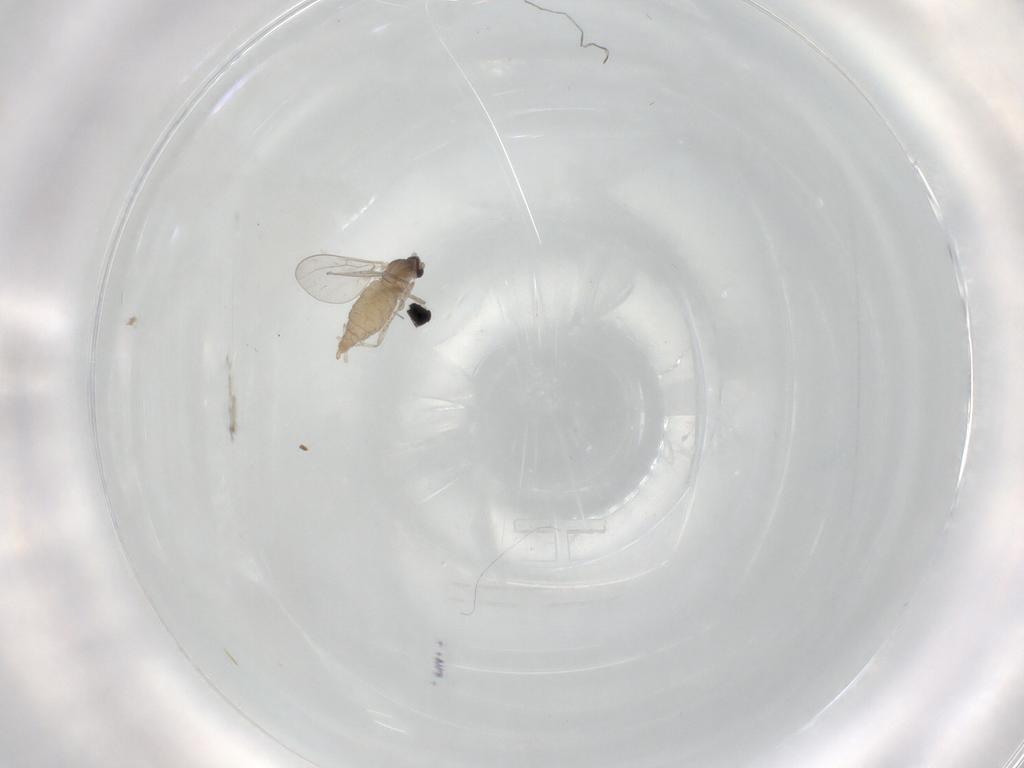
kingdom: Animalia
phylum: Arthropoda
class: Insecta
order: Diptera
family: Cecidomyiidae
